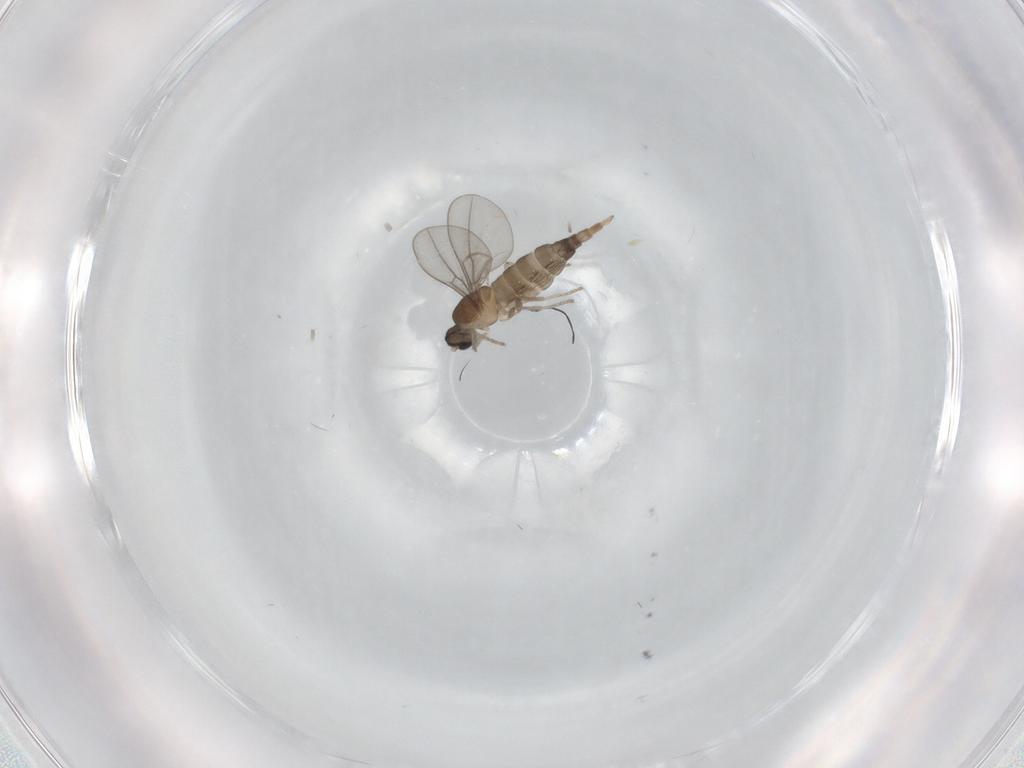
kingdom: Animalia
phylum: Arthropoda
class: Insecta
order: Diptera
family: Cecidomyiidae
